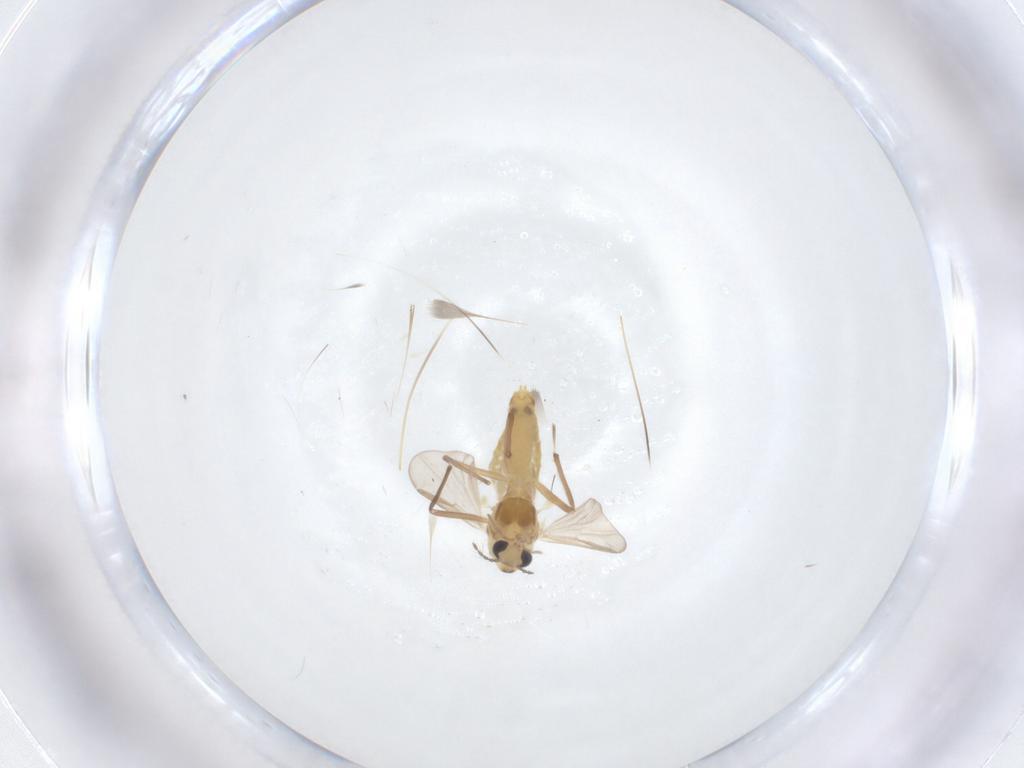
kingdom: Animalia
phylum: Arthropoda
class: Insecta
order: Diptera
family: Chironomidae
